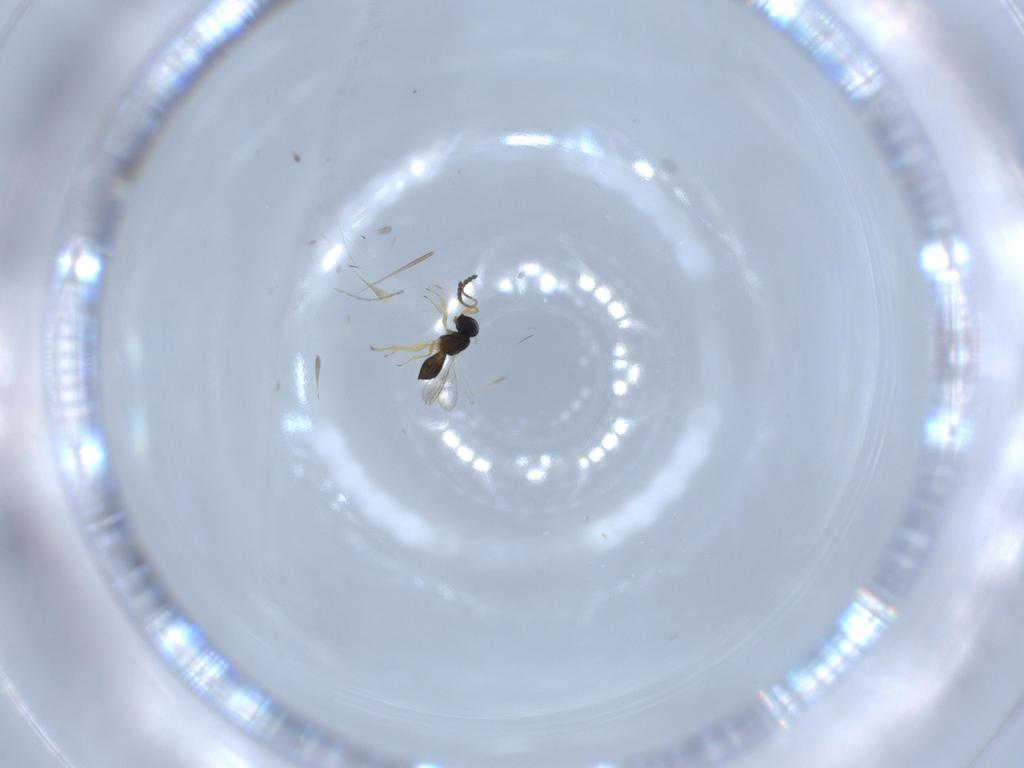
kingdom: Animalia
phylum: Arthropoda
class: Insecta
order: Hymenoptera
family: Scelionidae
